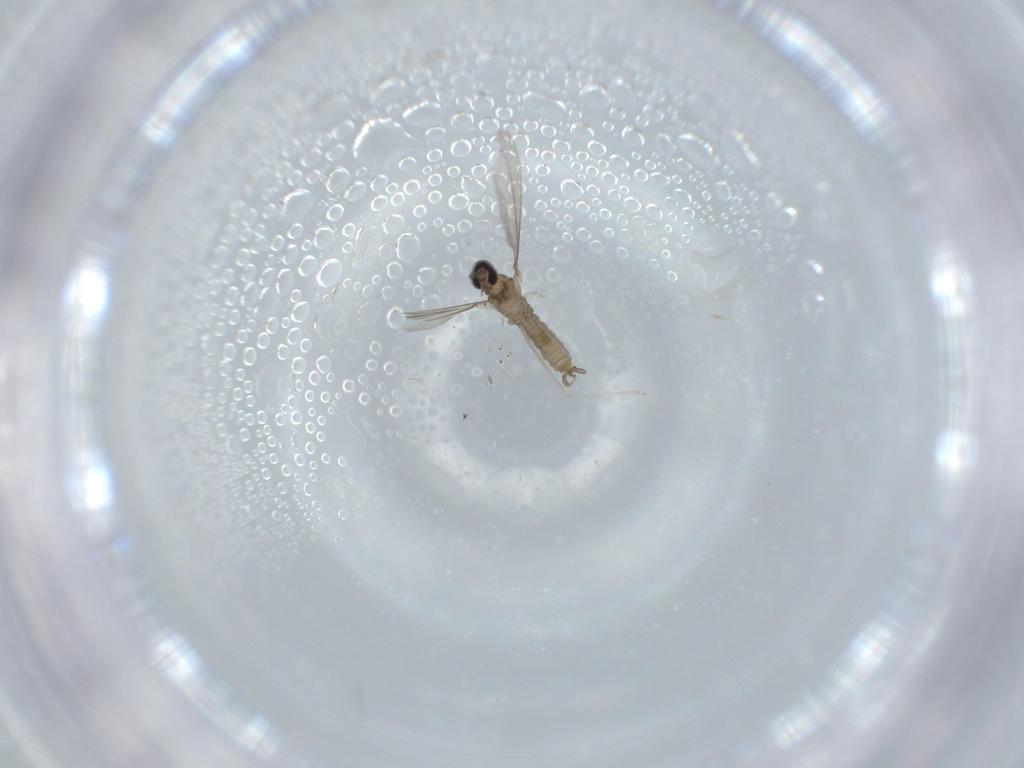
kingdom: Animalia
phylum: Arthropoda
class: Insecta
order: Diptera
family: Cecidomyiidae
